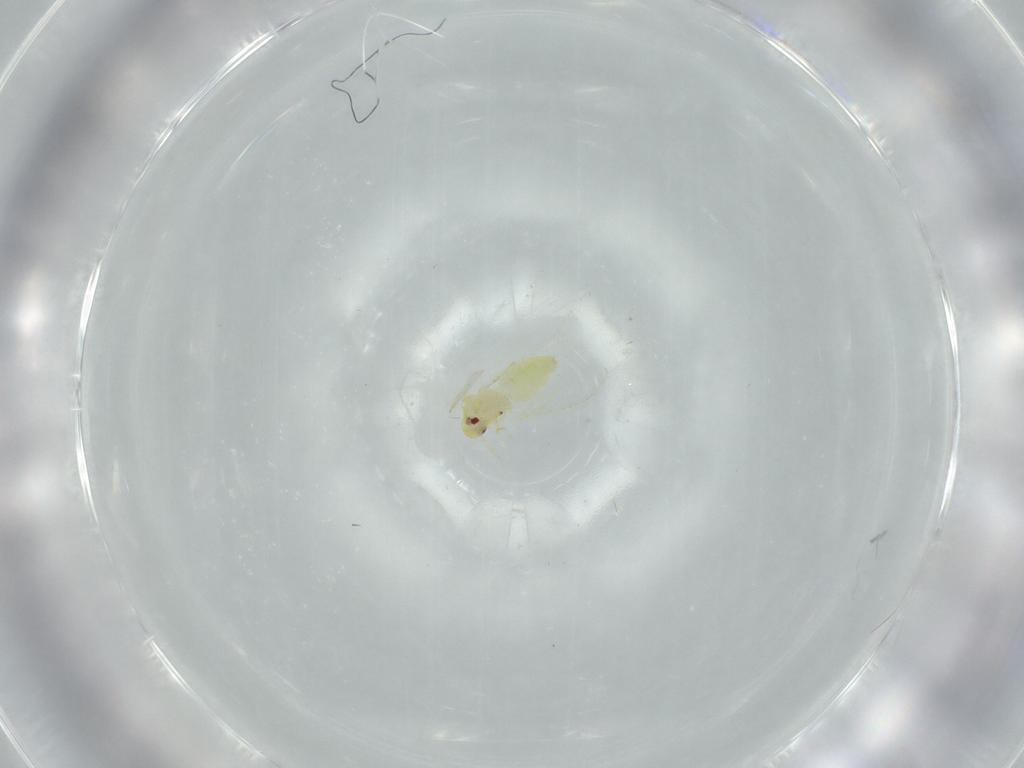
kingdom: Animalia
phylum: Arthropoda
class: Insecta
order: Hemiptera
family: Aleyrodidae
